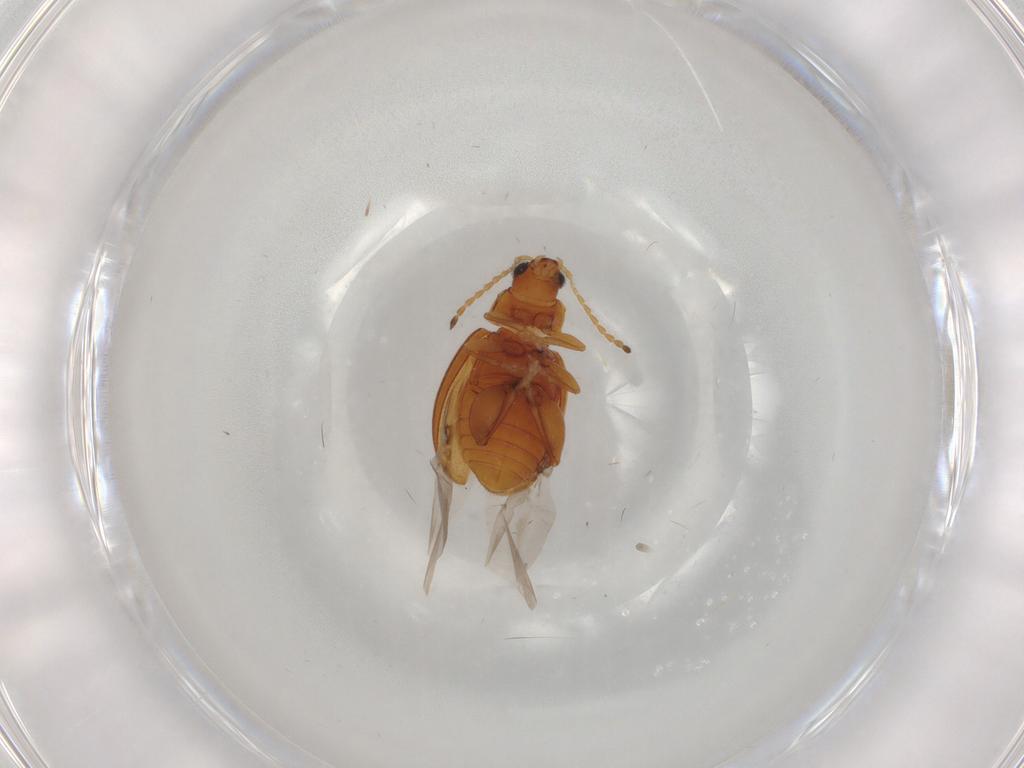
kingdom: Animalia
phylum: Arthropoda
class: Insecta
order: Coleoptera
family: Chrysomelidae
